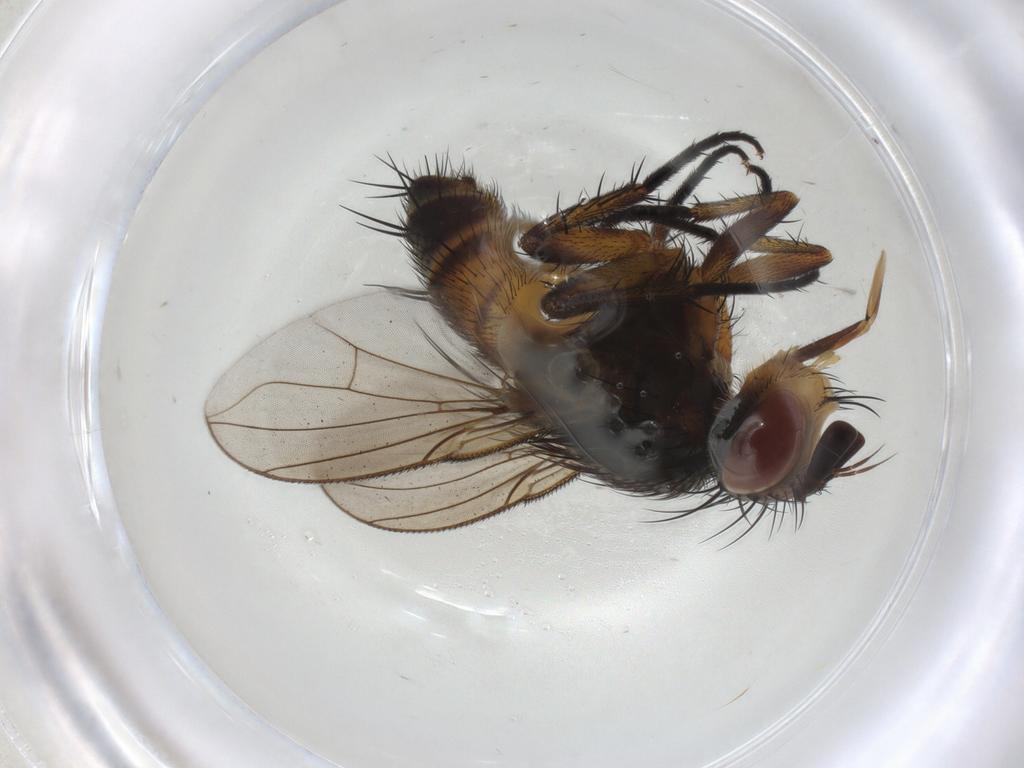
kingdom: Animalia
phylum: Arthropoda
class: Insecta
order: Diptera
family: Tachinidae
